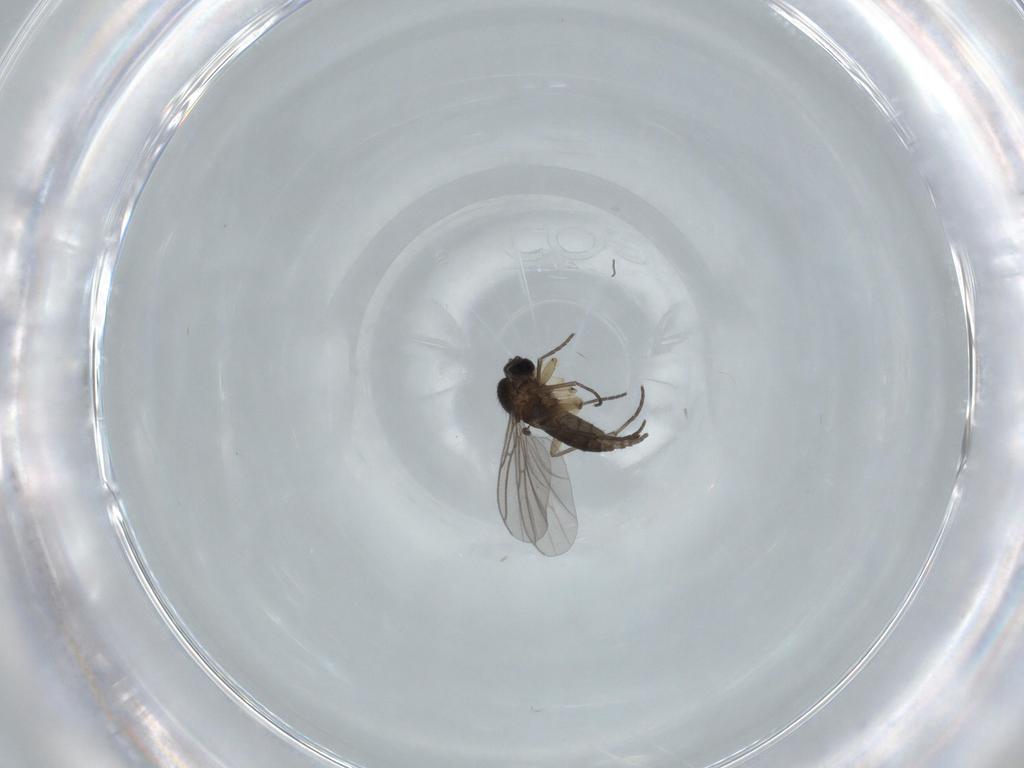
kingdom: Animalia
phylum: Arthropoda
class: Insecta
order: Diptera
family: Sciaridae
